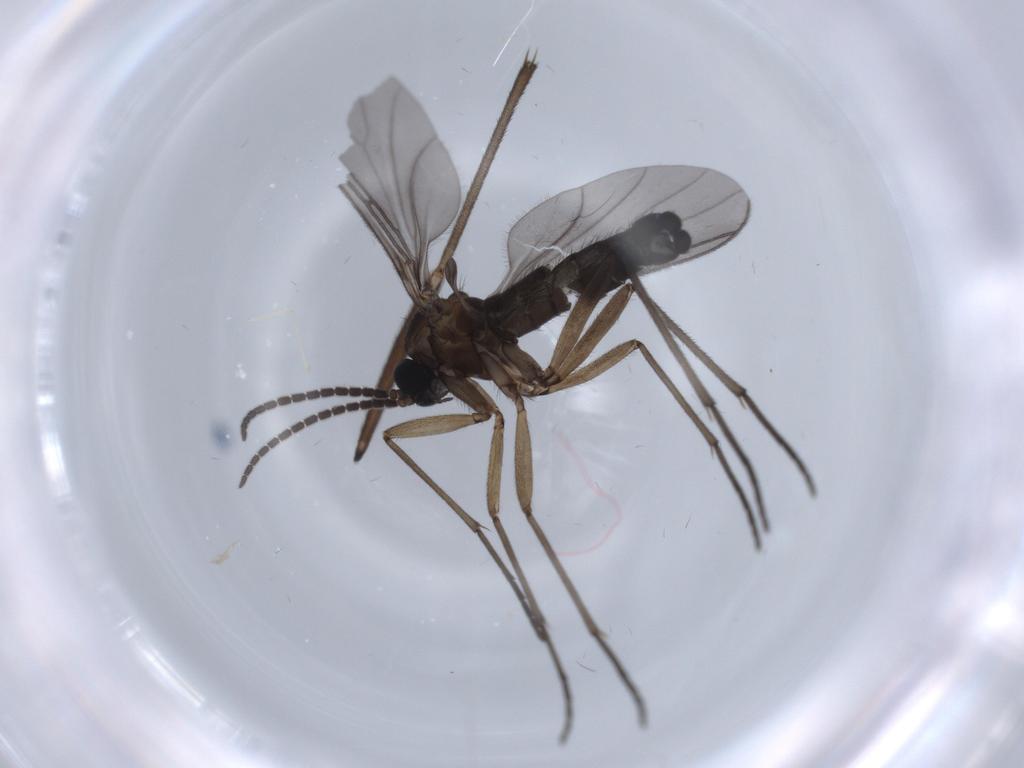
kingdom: Animalia
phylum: Arthropoda
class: Insecta
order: Diptera
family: Sciaridae
